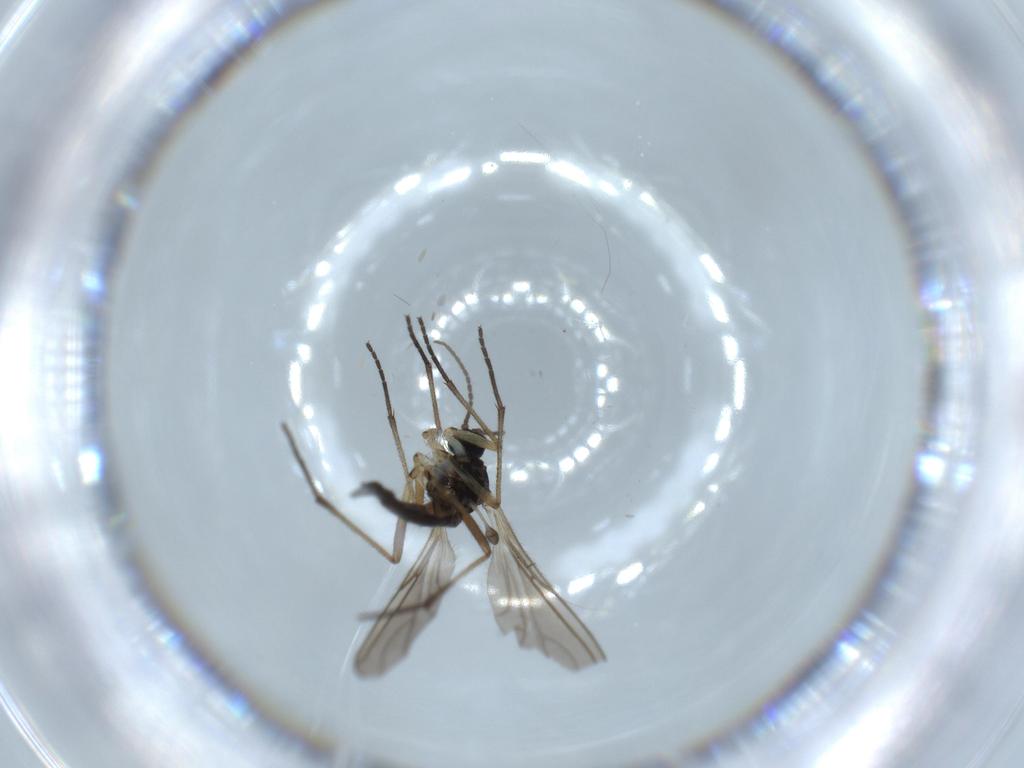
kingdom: Animalia
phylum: Arthropoda
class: Insecta
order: Diptera
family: Sciaridae
